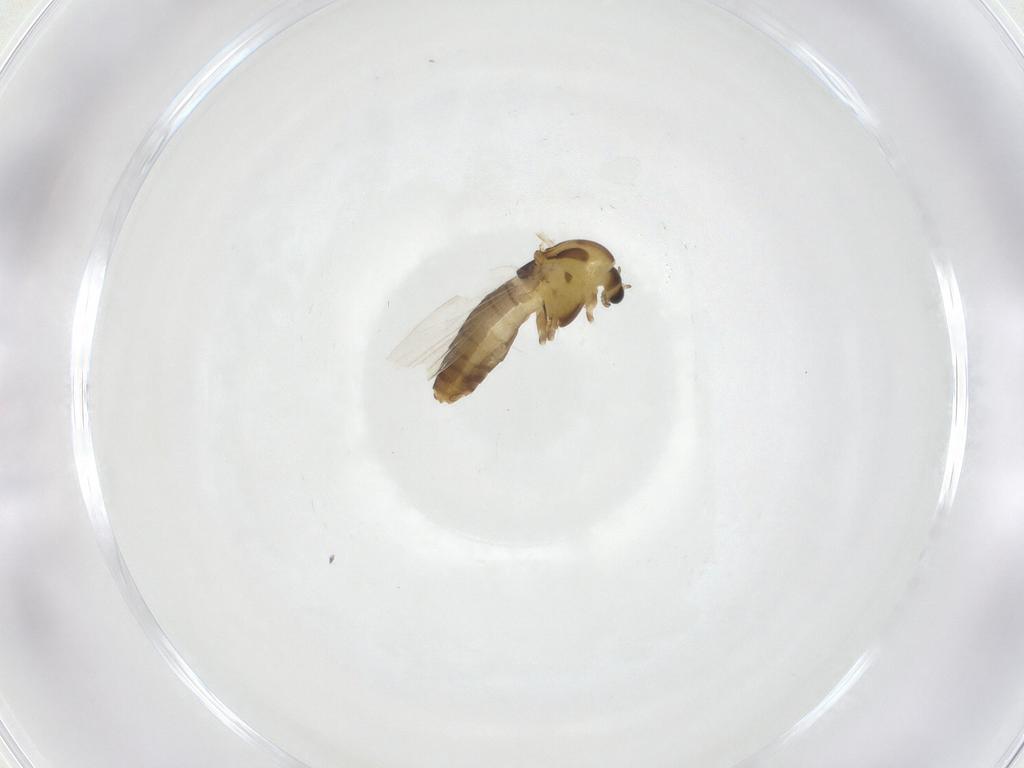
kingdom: Animalia
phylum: Arthropoda
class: Insecta
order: Diptera
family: Chironomidae
